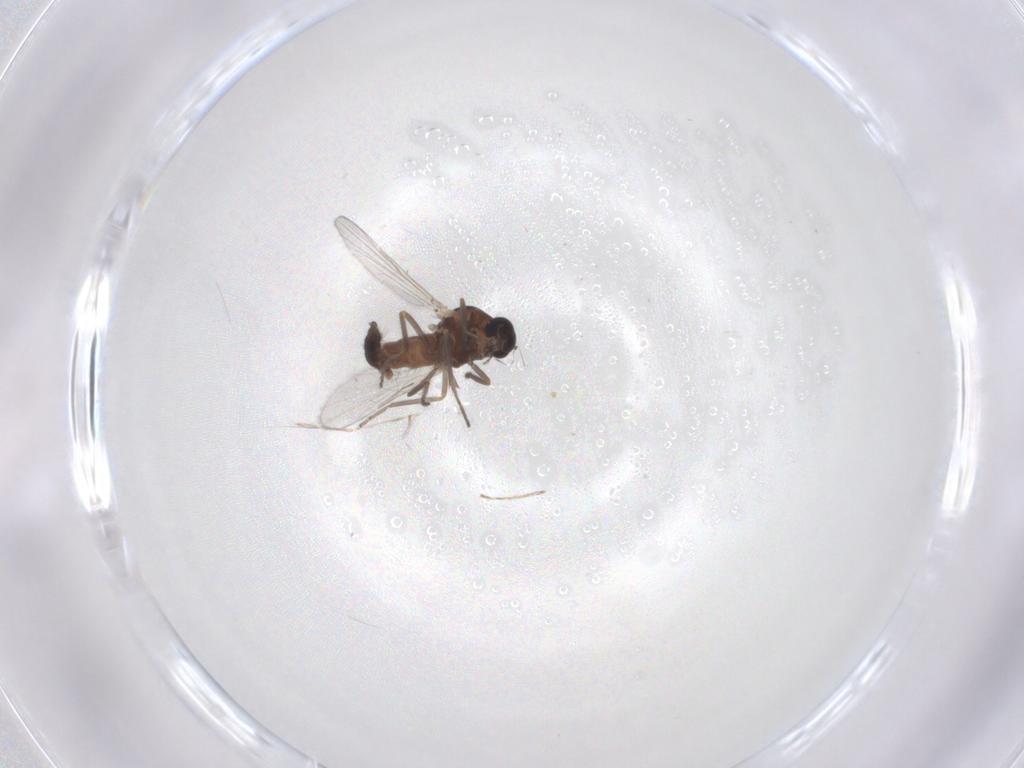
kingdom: Animalia
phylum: Arthropoda
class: Insecta
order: Diptera
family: Ceratopogonidae
